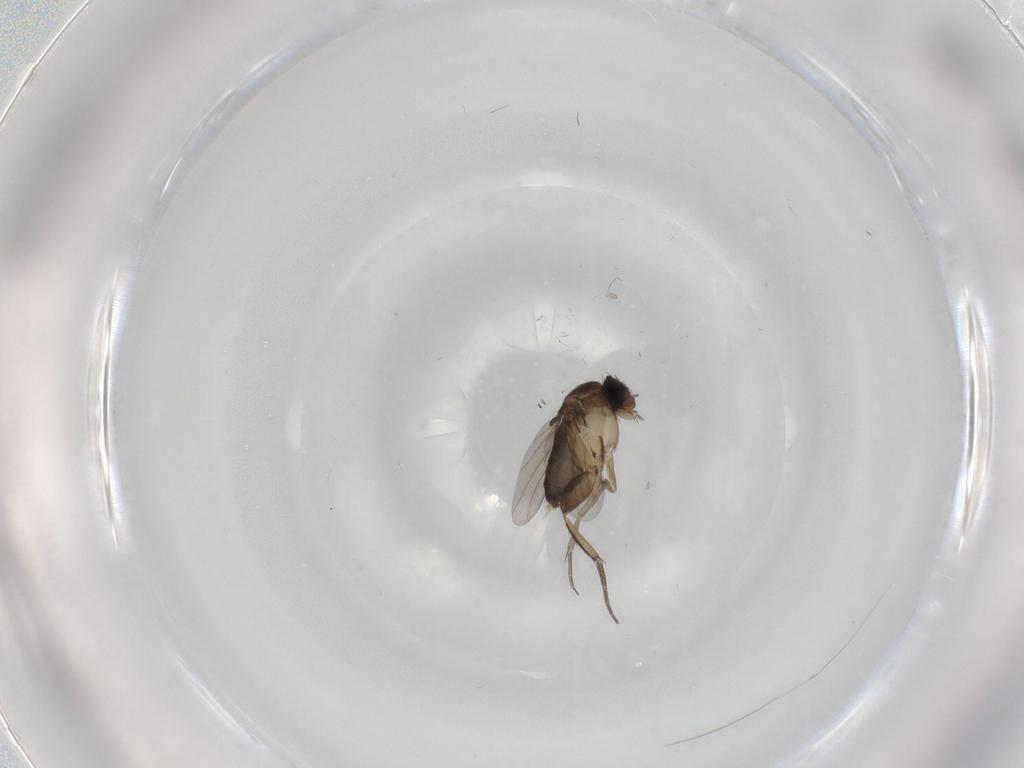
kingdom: Animalia
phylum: Arthropoda
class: Insecta
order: Diptera
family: Phoridae
